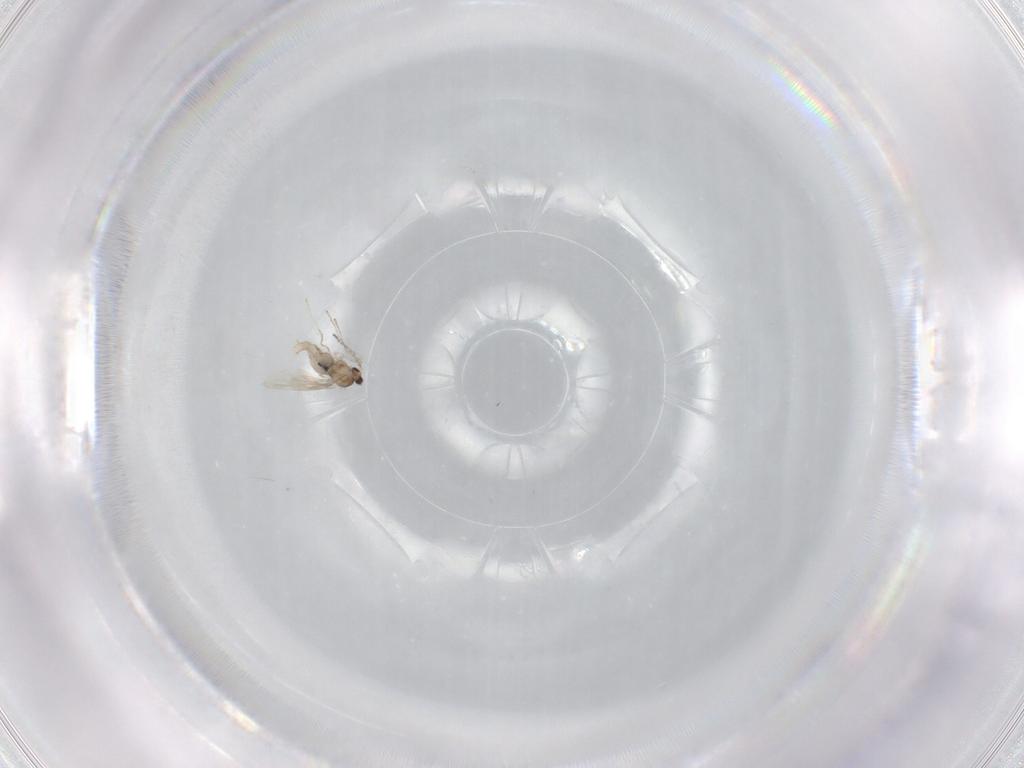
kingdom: Animalia
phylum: Arthropoda
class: Insecta
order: Diptera
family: Cecidomyiidae
